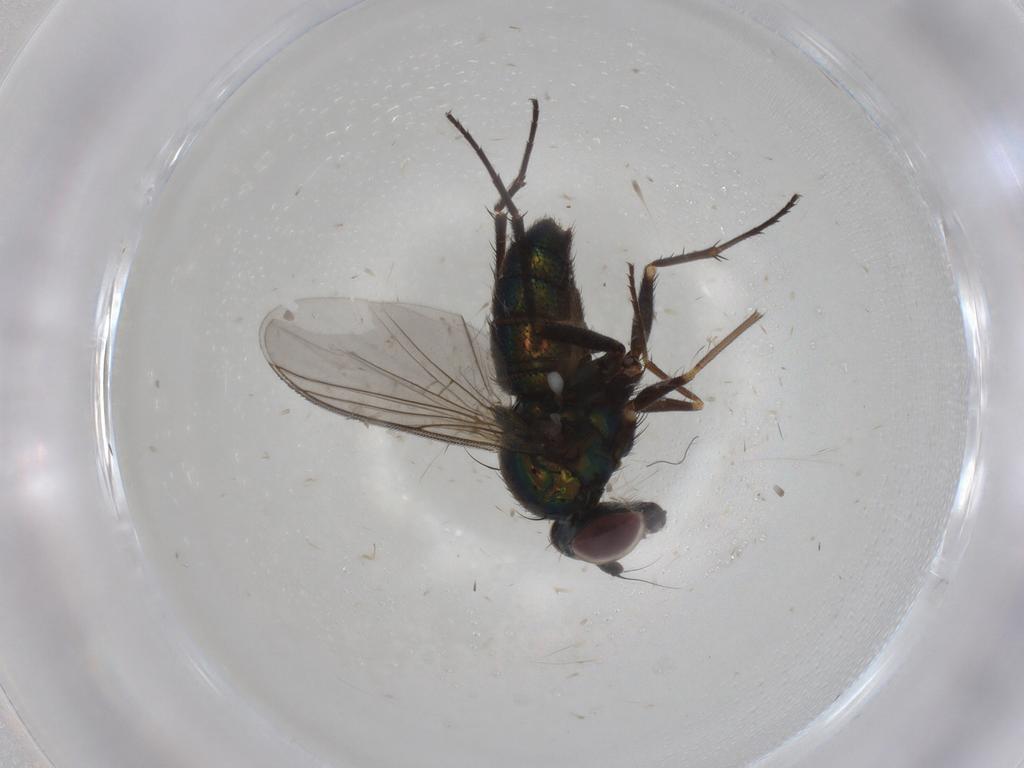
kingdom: Animalia
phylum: Arthropoda
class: Insecta
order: Diptera
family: Dolichopodidae
